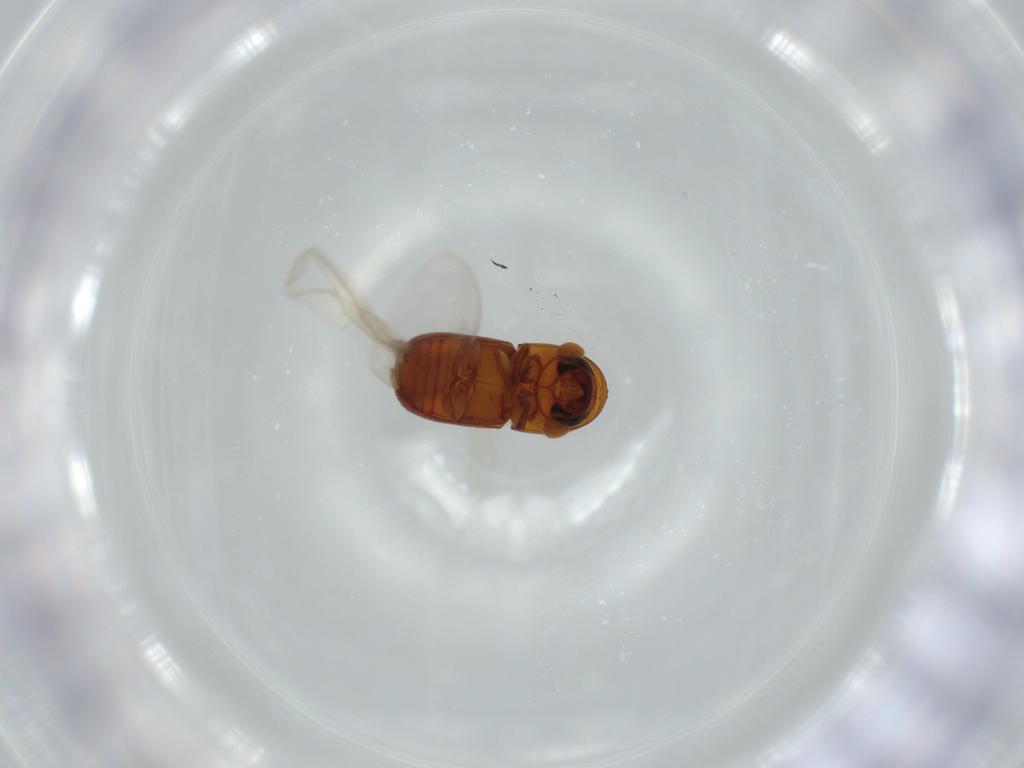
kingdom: Animalia
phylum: Arthropoda
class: Insecta
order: Coleoptera
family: Curculionidae
